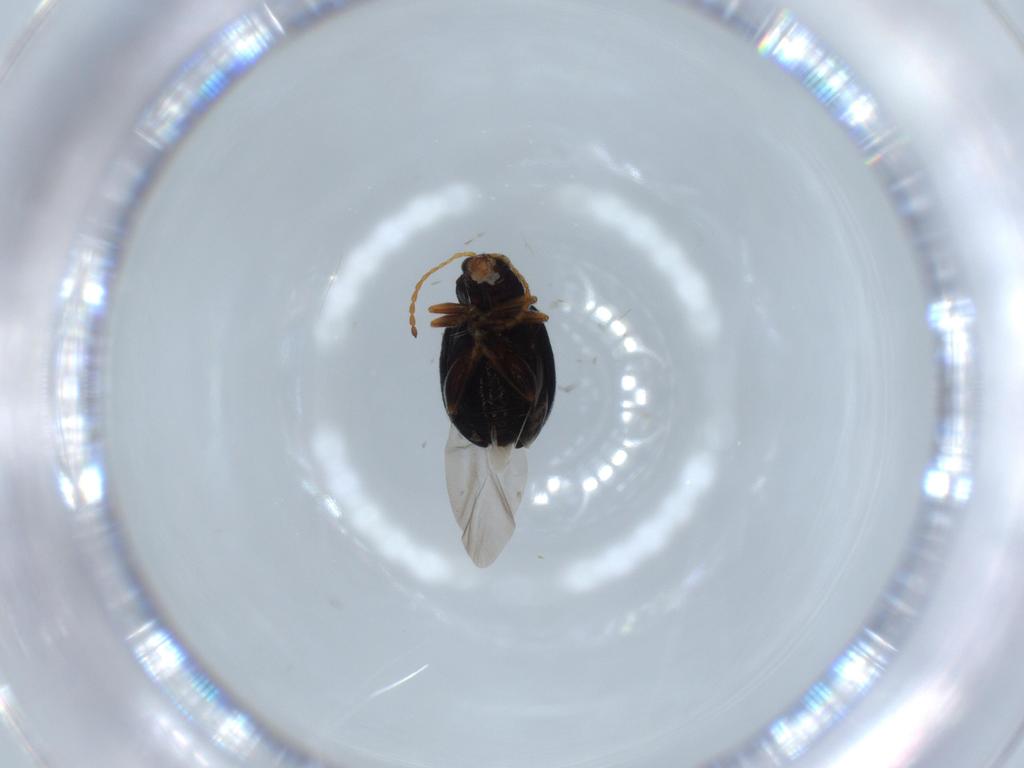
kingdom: Animalia
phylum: Arthropoda
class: Insecta
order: Coleoptera
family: Chrysomelidae
